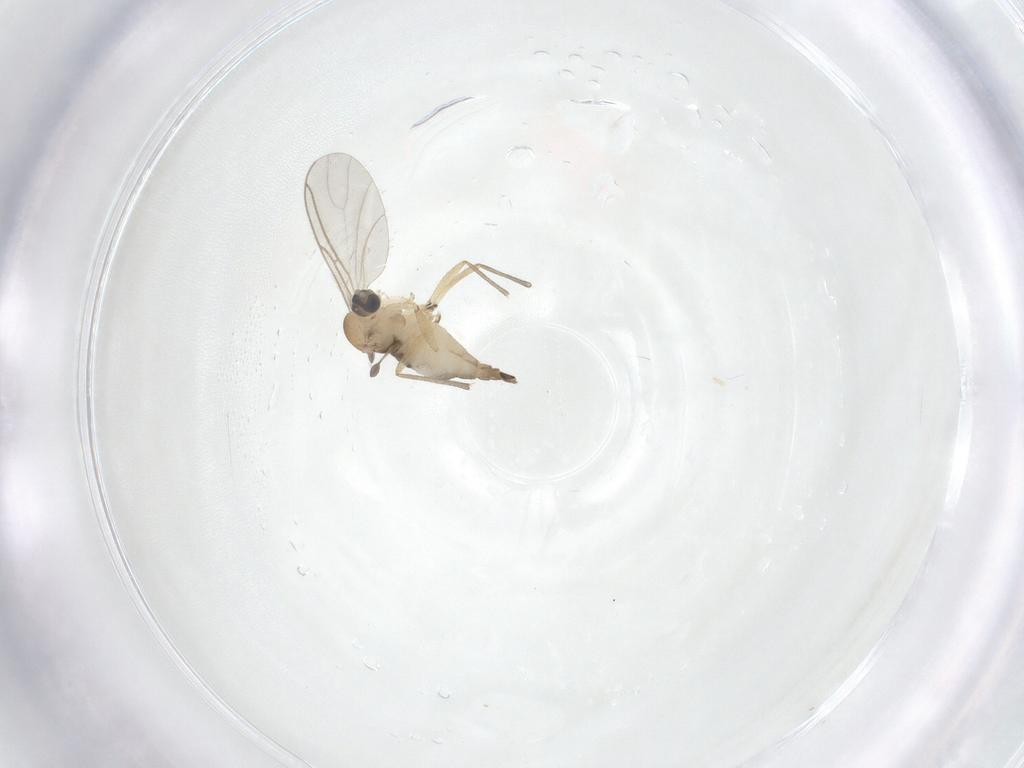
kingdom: Animalia
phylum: Arthropoda
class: Insecta
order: Diptera
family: Sciaridae
